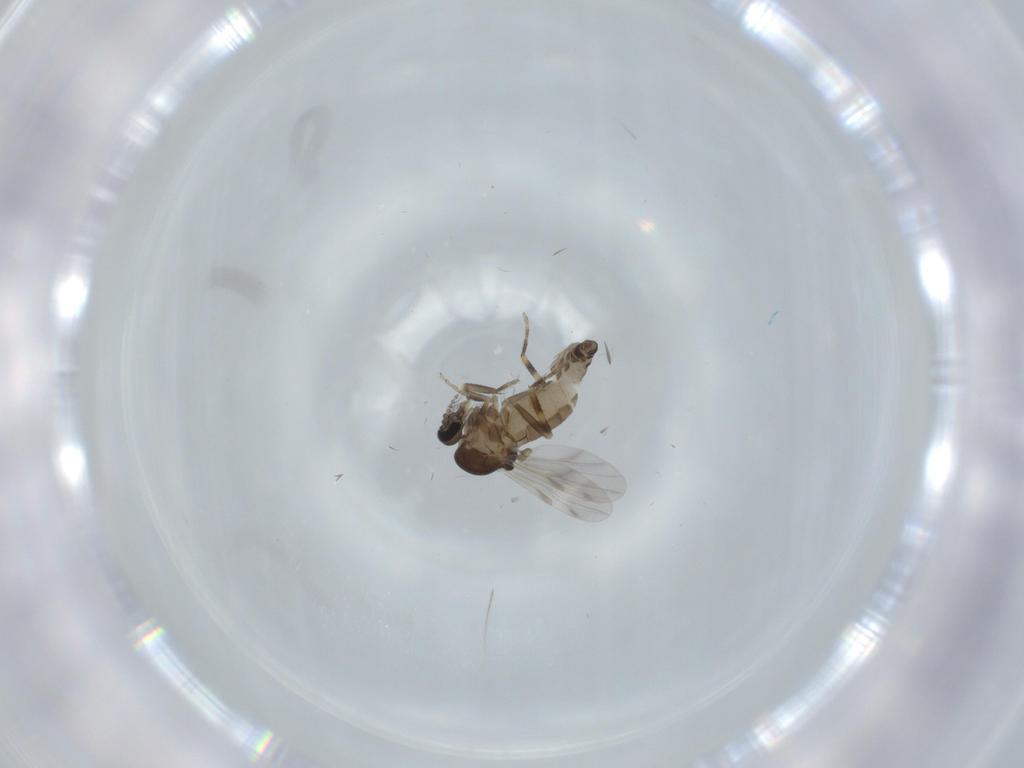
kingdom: Animalia
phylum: Arthropoda
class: Insecta
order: Diptera
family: Ceratopogonidae
